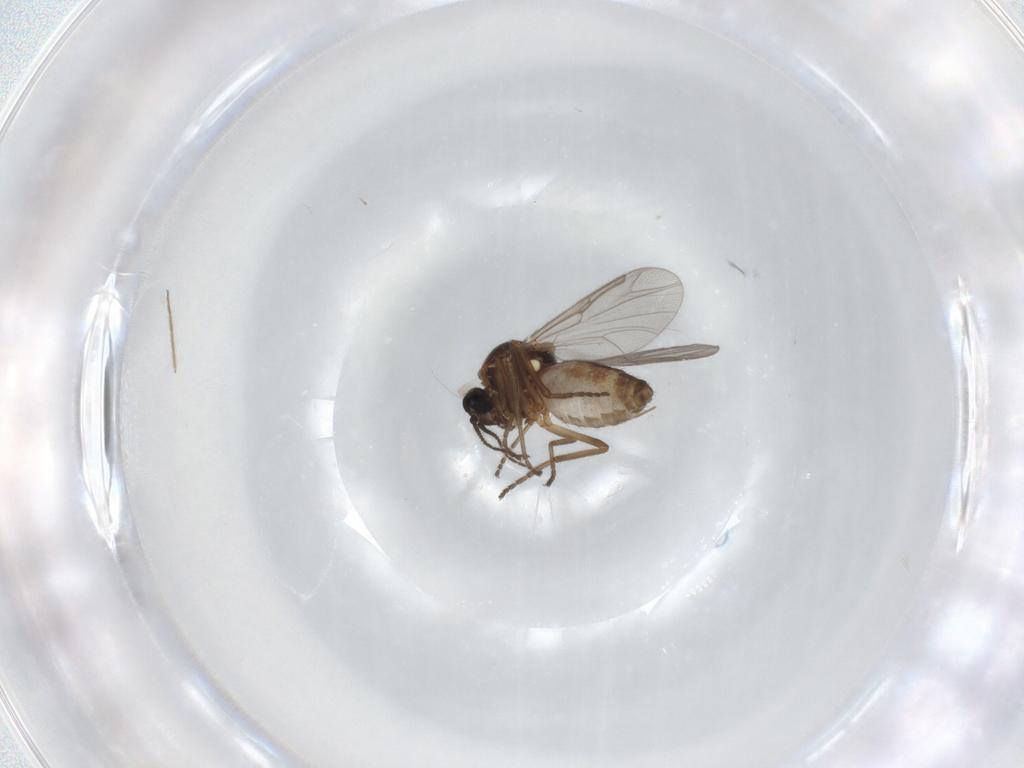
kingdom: Animalia
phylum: Arthropoda
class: Insecta
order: Diptera
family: Ceratopogonidae
